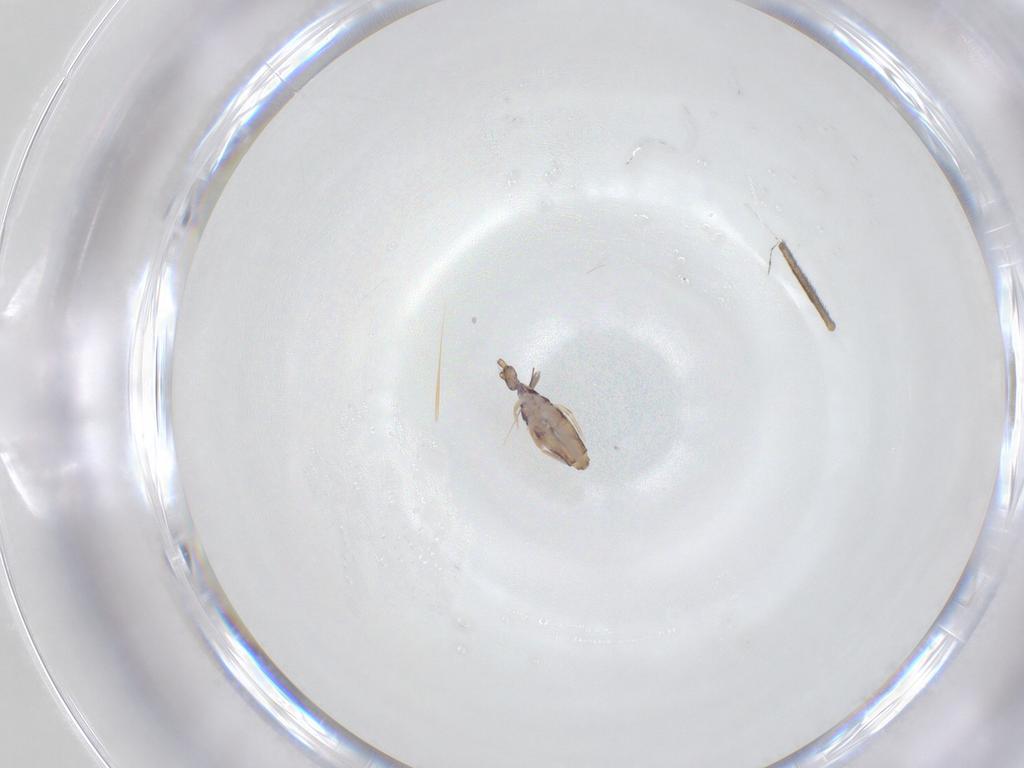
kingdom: Animalia
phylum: Arthropoda
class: Collembola
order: Entomobryomorpha
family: Entomobryidae
